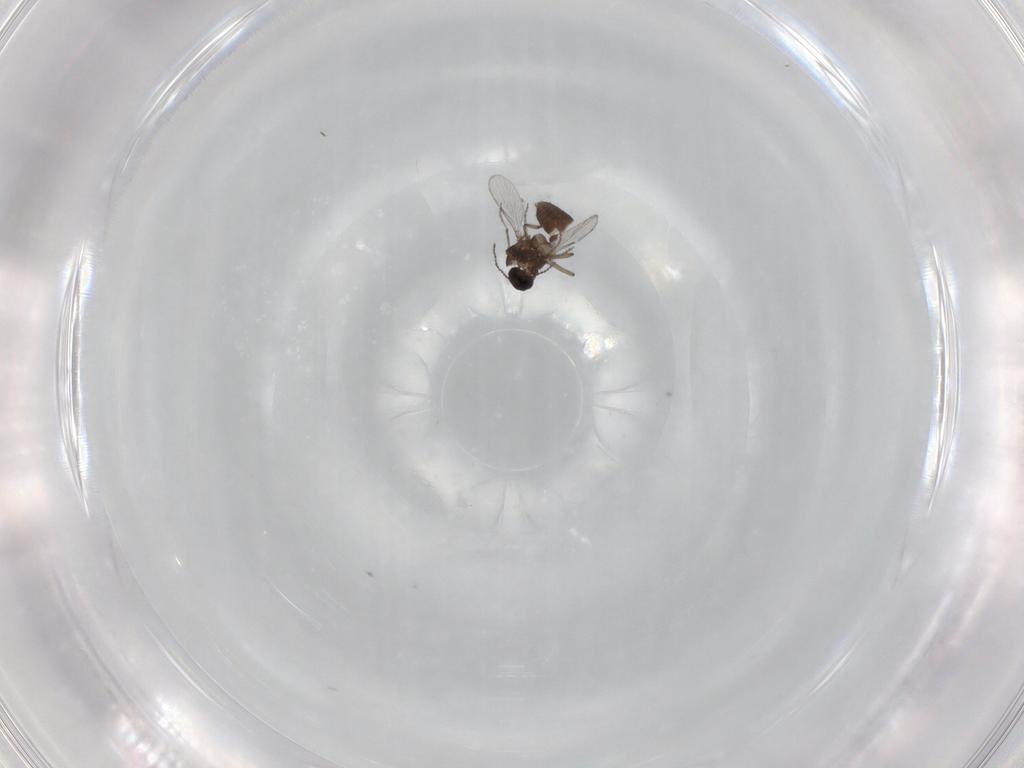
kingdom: Animalia
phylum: Arthropoda
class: Insecta
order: Diptera
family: Ceratopogonidae
